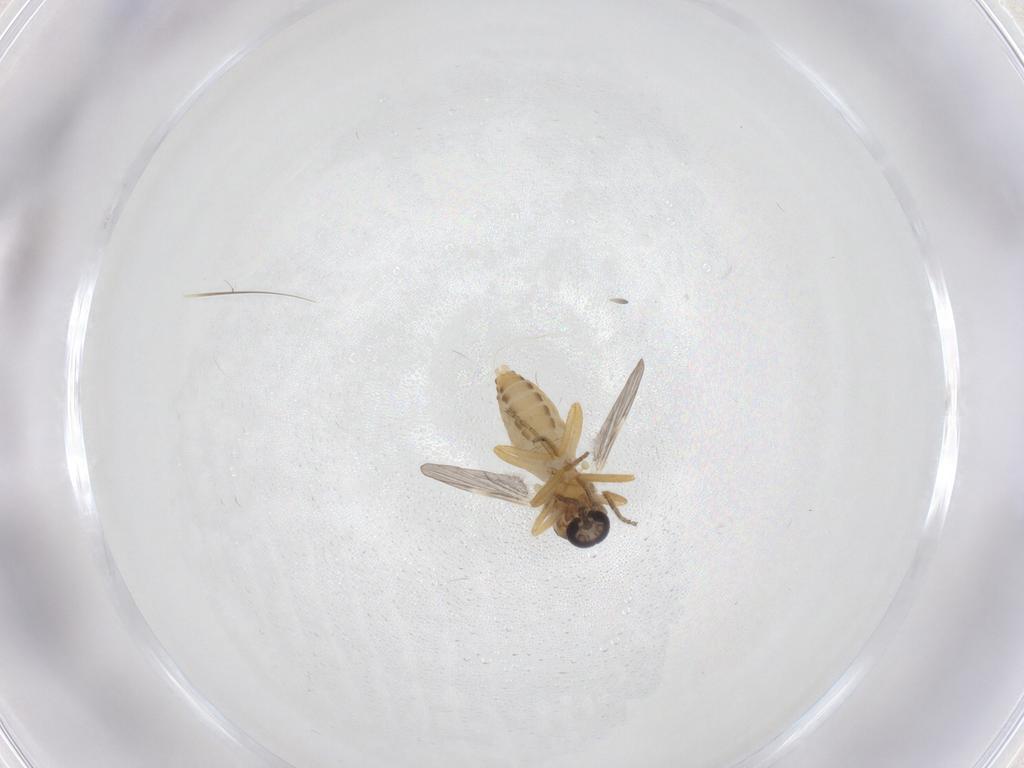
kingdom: Animalia
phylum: Arthropoda
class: Insecta
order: Diptera
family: Ceratopogonidae
